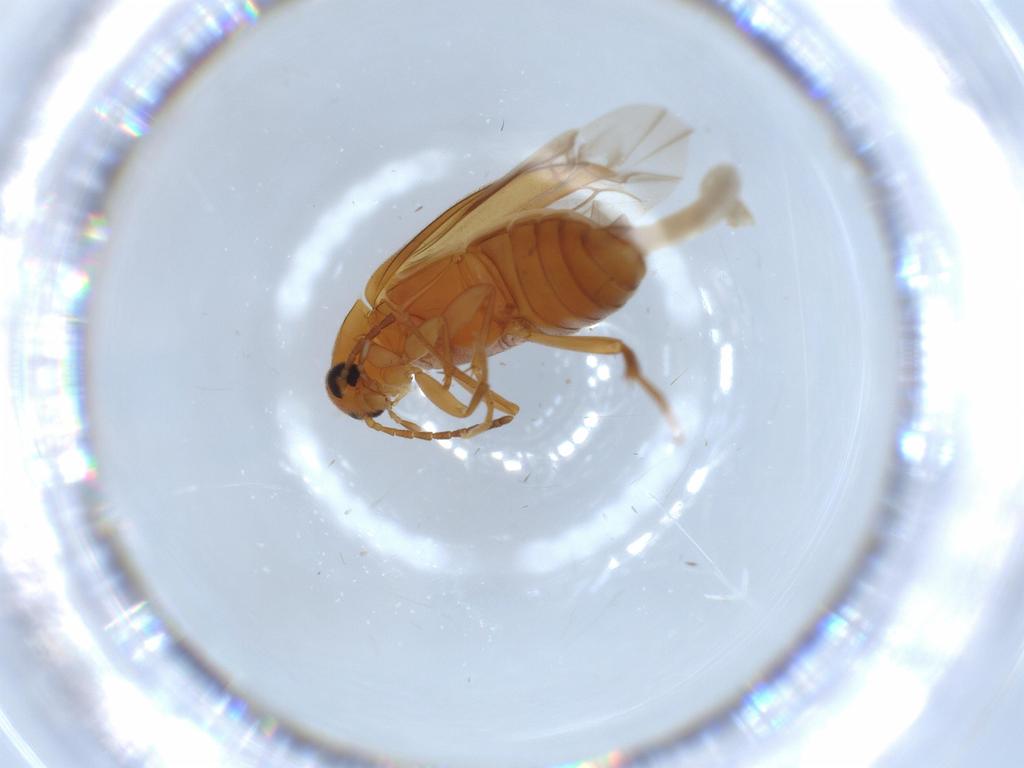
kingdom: Animalia
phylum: Arthropoda
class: Insecta
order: Coleoptera
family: Scraptiidae
